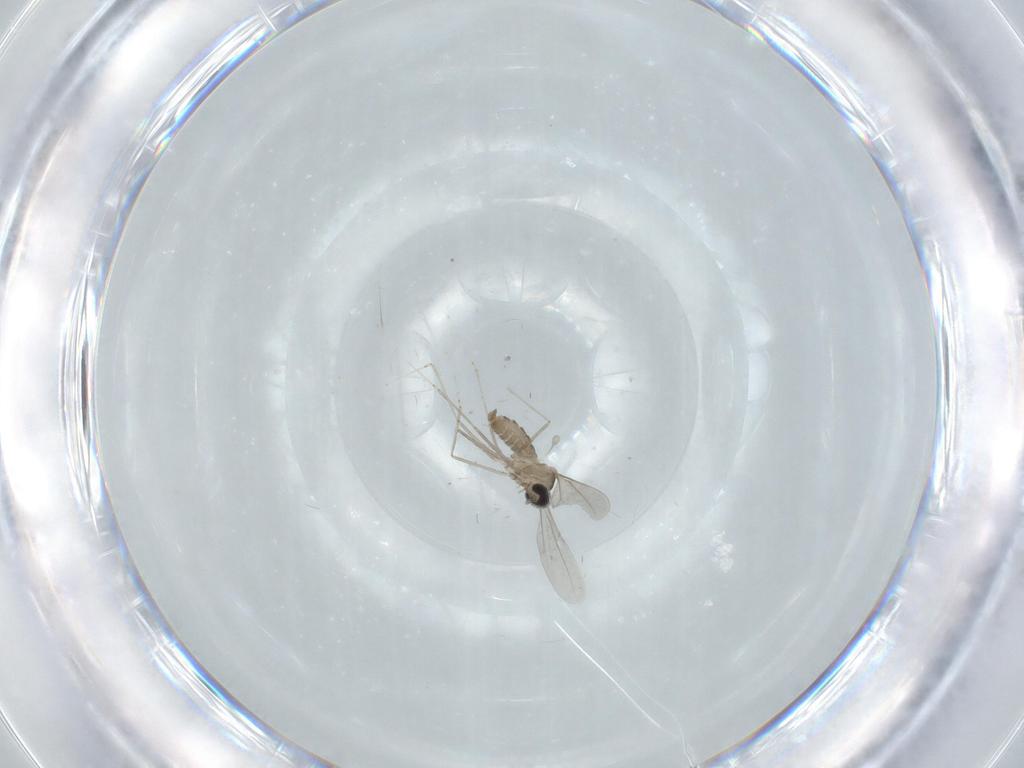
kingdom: Animalia
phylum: Arthropoda
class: Insecta
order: Diptera
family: Cecidomyiidae
